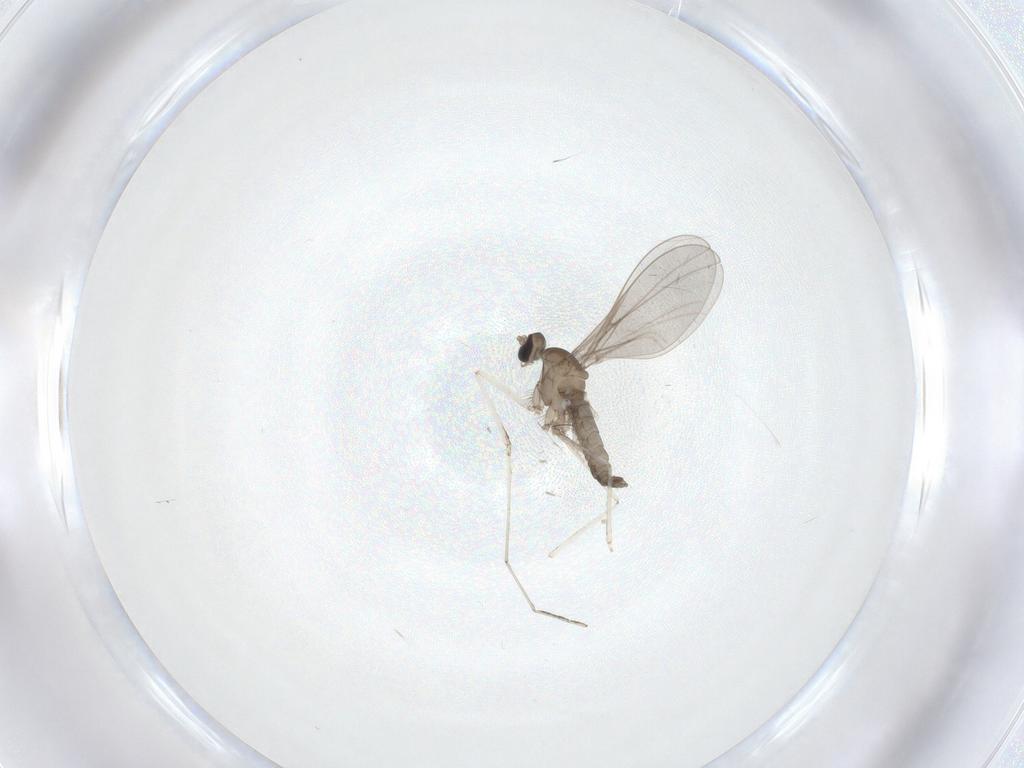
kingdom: Animalia
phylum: Arthropoda
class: Insecta
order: Diptera
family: Cecidomyiidae
